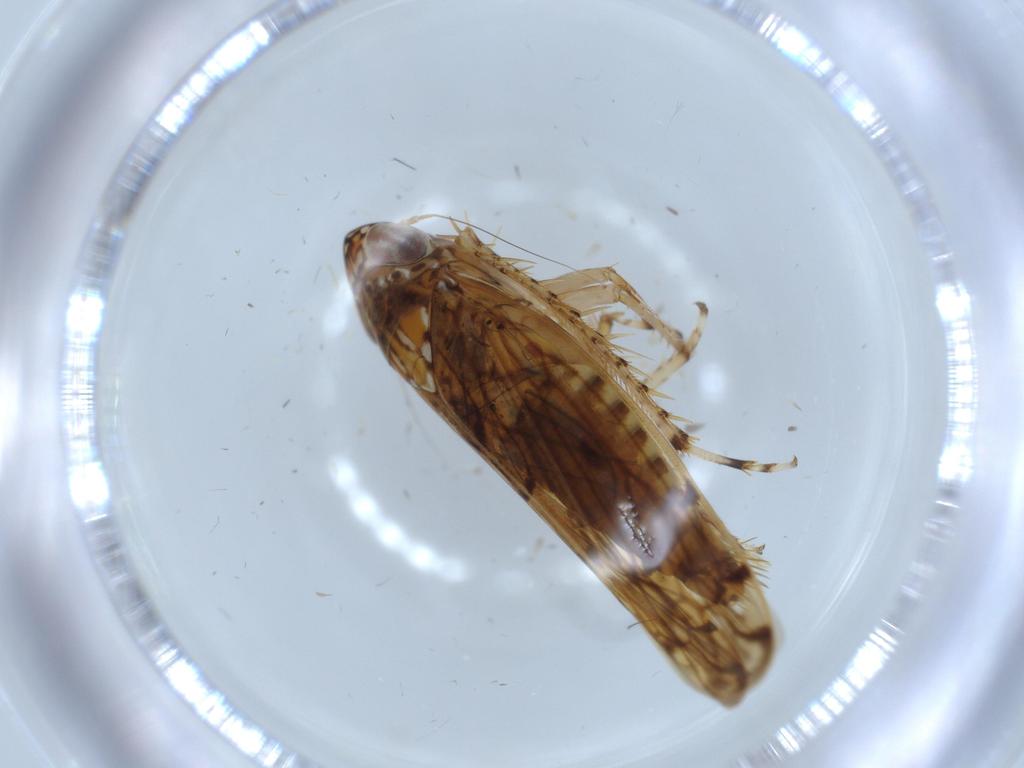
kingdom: Animalia
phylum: Arthropoda
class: Insecta
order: Hemiptera
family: Cicadellidae
